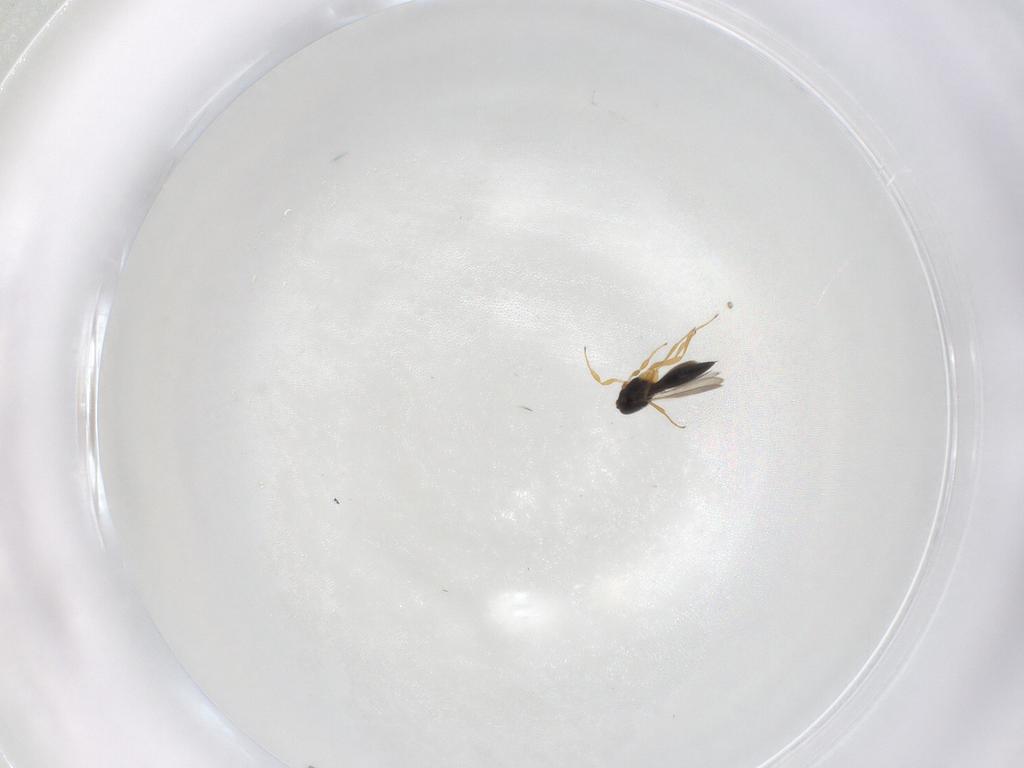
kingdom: Animalia
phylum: Arthropoda
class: Insecta
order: Hymenoptera
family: Scelionidae
